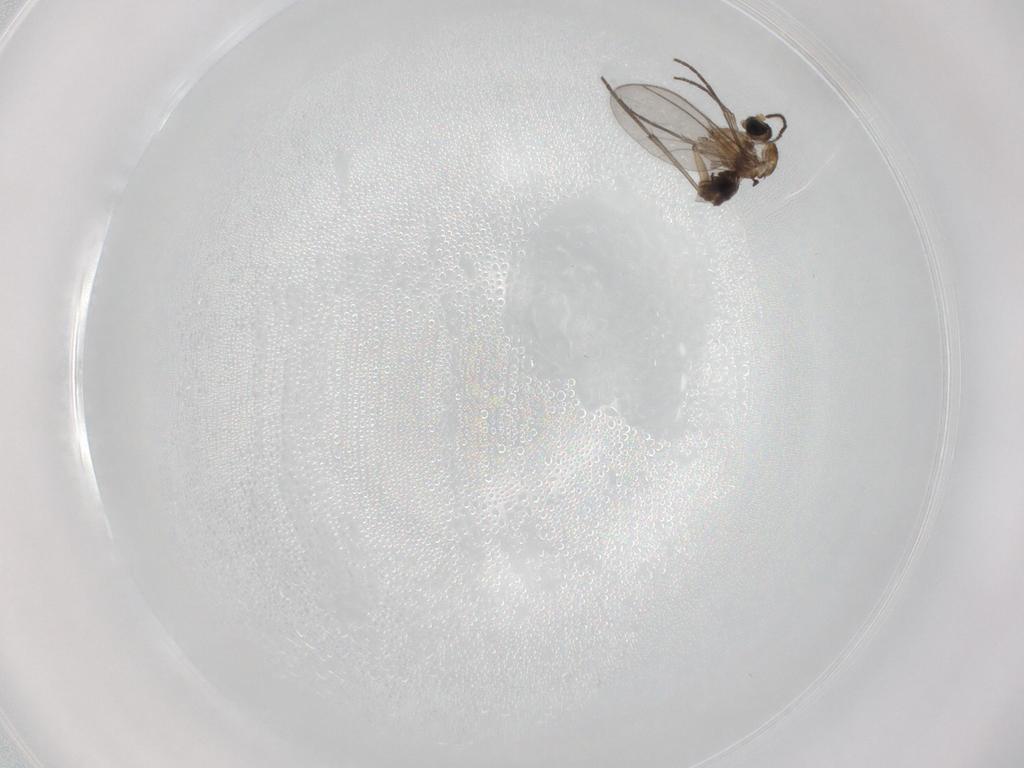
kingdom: Animalia
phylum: Arthropoda
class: Insecta
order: Diptera
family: Sciaridae
